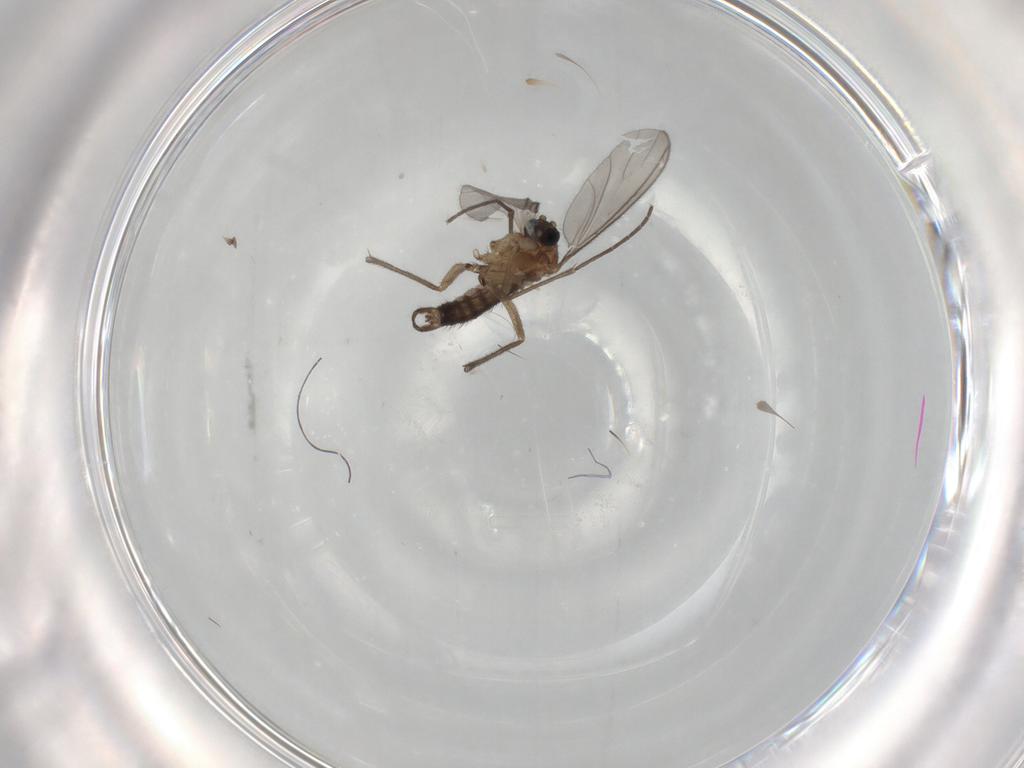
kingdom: Animalia
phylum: Arthropoda
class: Insecta
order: Diptera
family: Sciaridae
